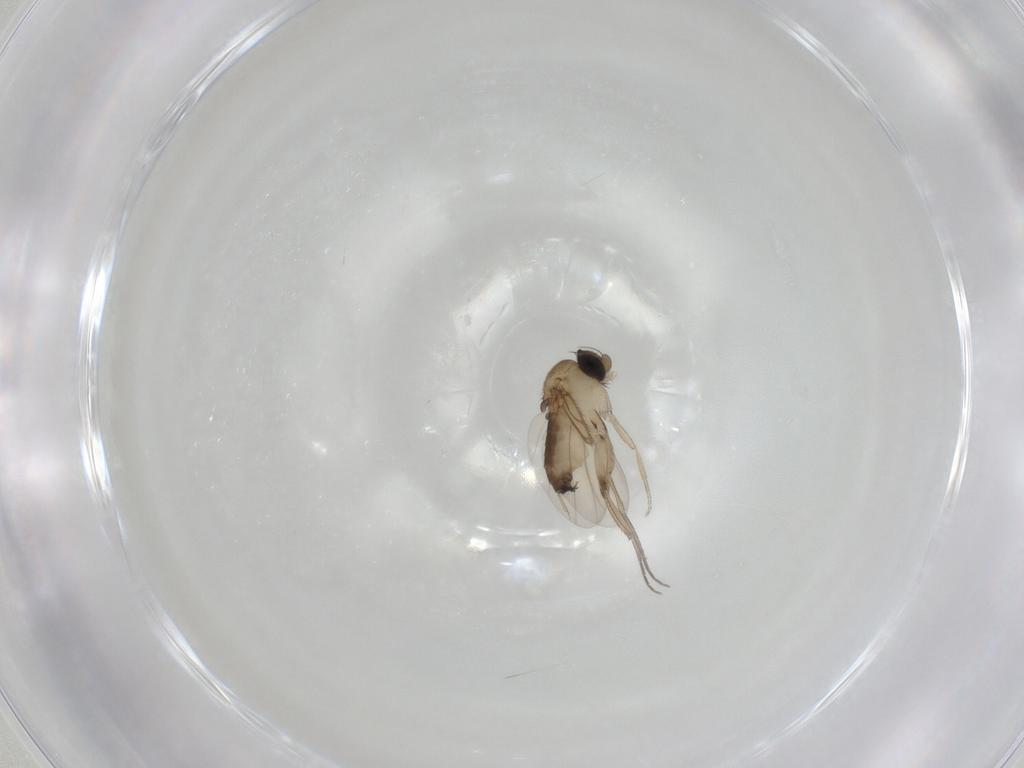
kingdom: Animalia
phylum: Arthropoda
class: Insecta
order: Diptera
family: Phoridae
